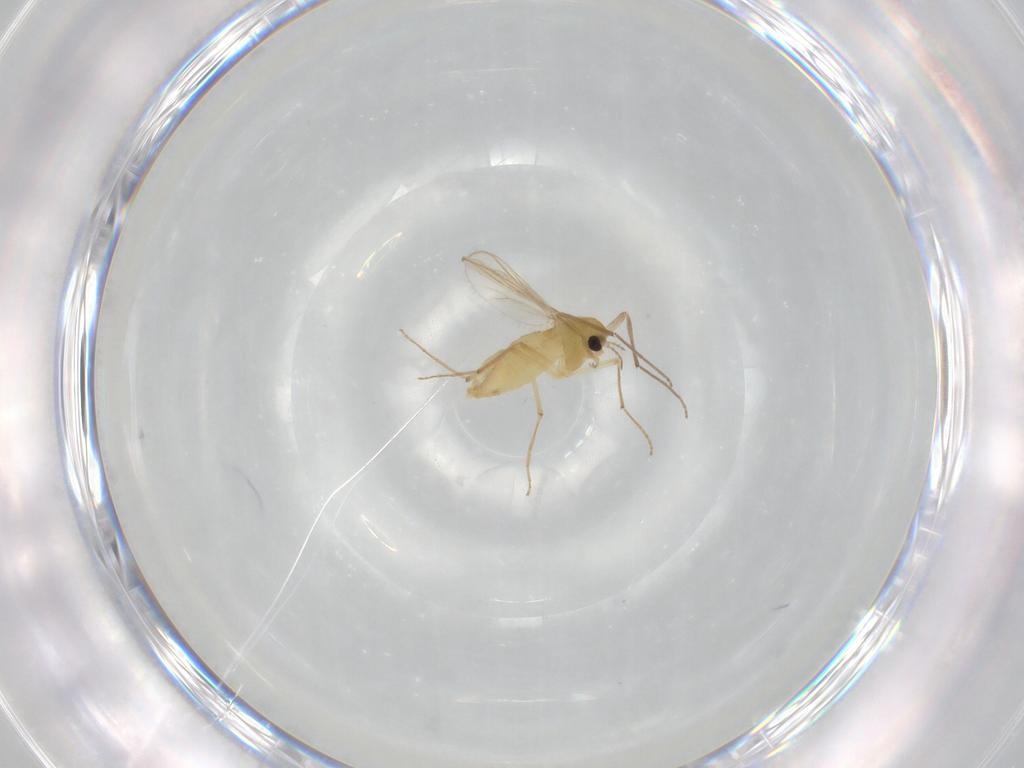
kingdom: Animalia
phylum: Arthropoda
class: Insecta
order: Diptera
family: Chironomidae
